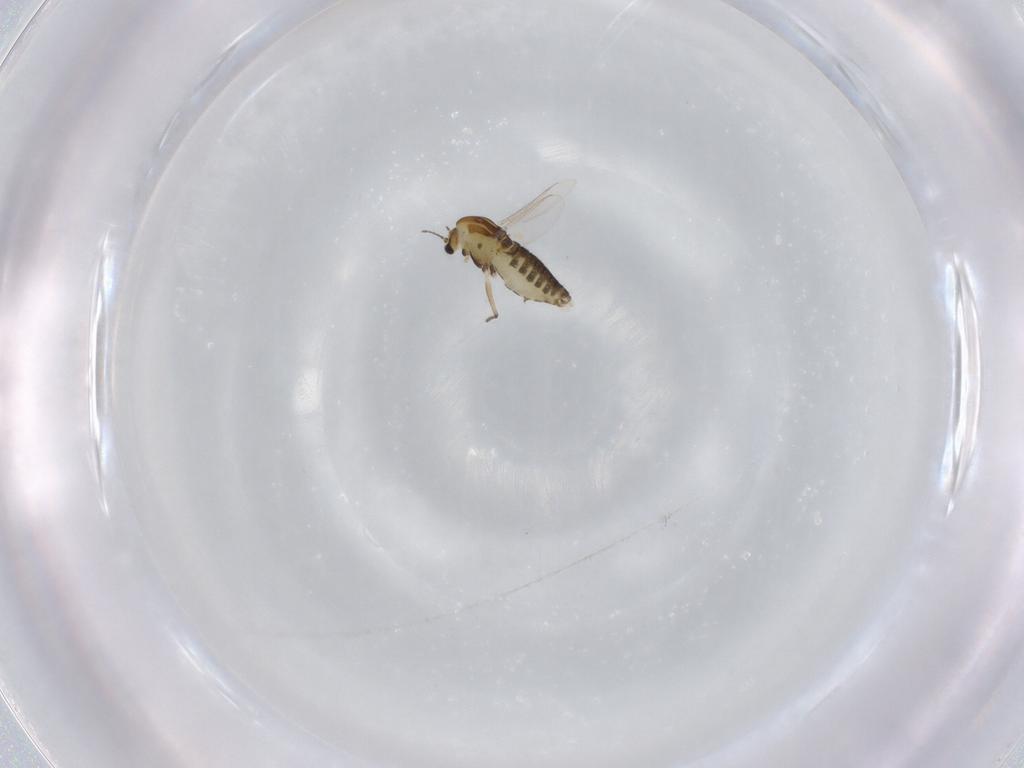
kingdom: Animalia
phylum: Arthropoda
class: Insecta
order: Diptera
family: Chironomidae
